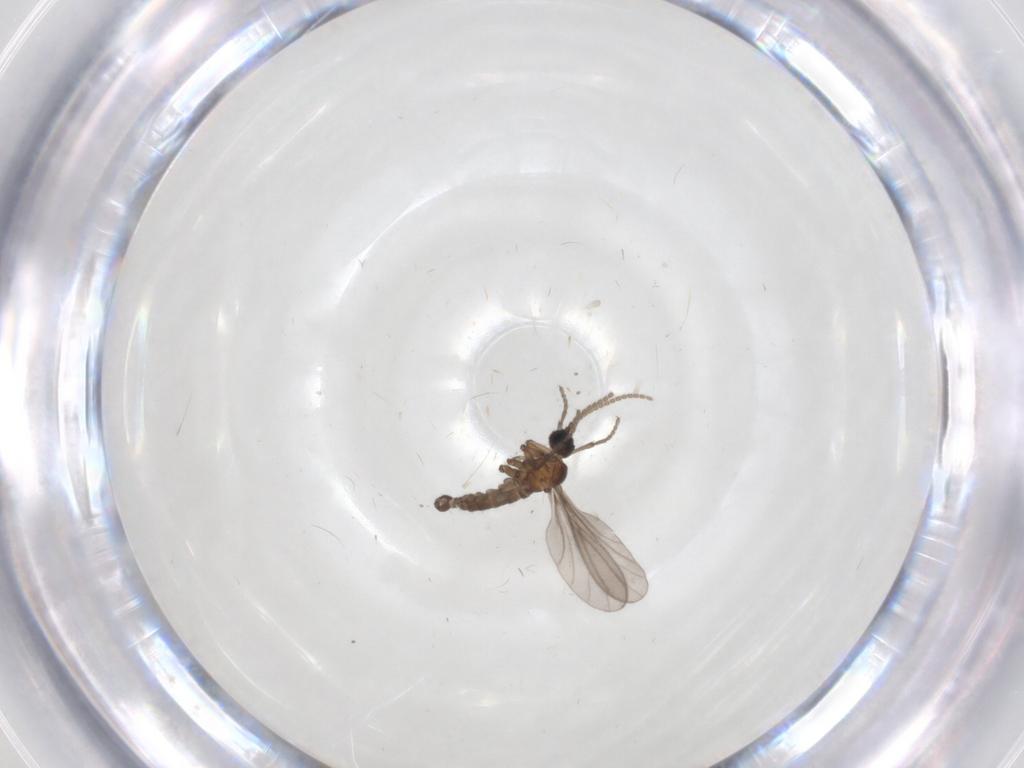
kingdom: Animalia
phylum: Arthropoda
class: Insecta
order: Diptera
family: Sciaridae
